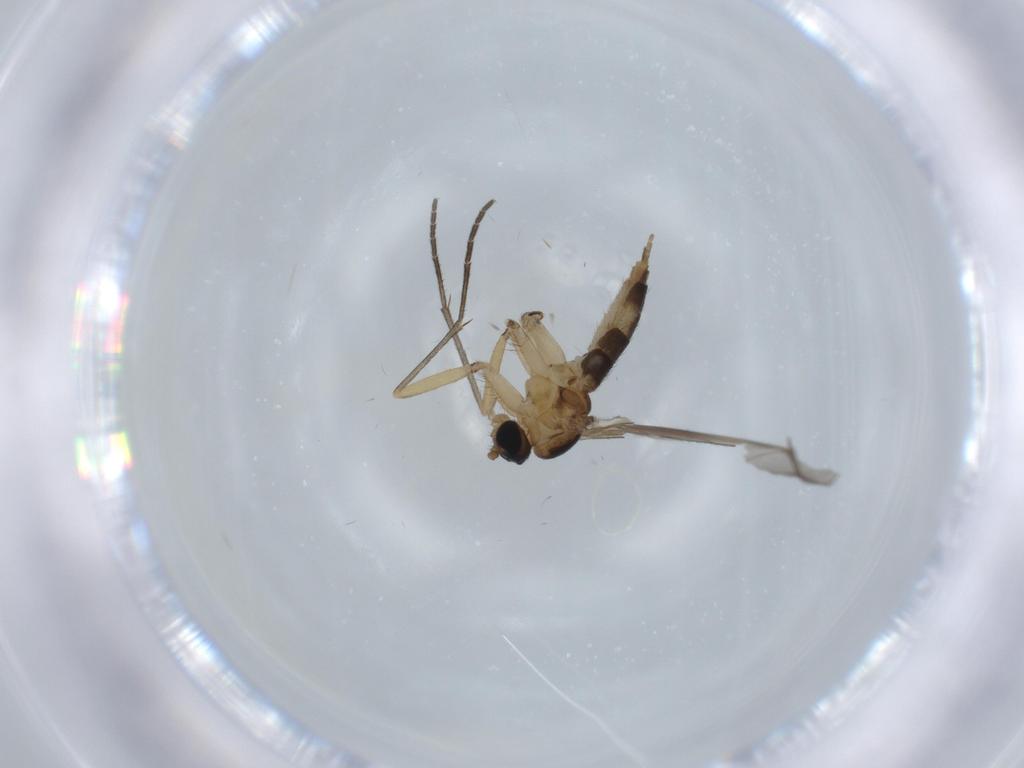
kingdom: Animalia
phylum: Arthropoda
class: Insecta
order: Diptera
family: Sciaridae
